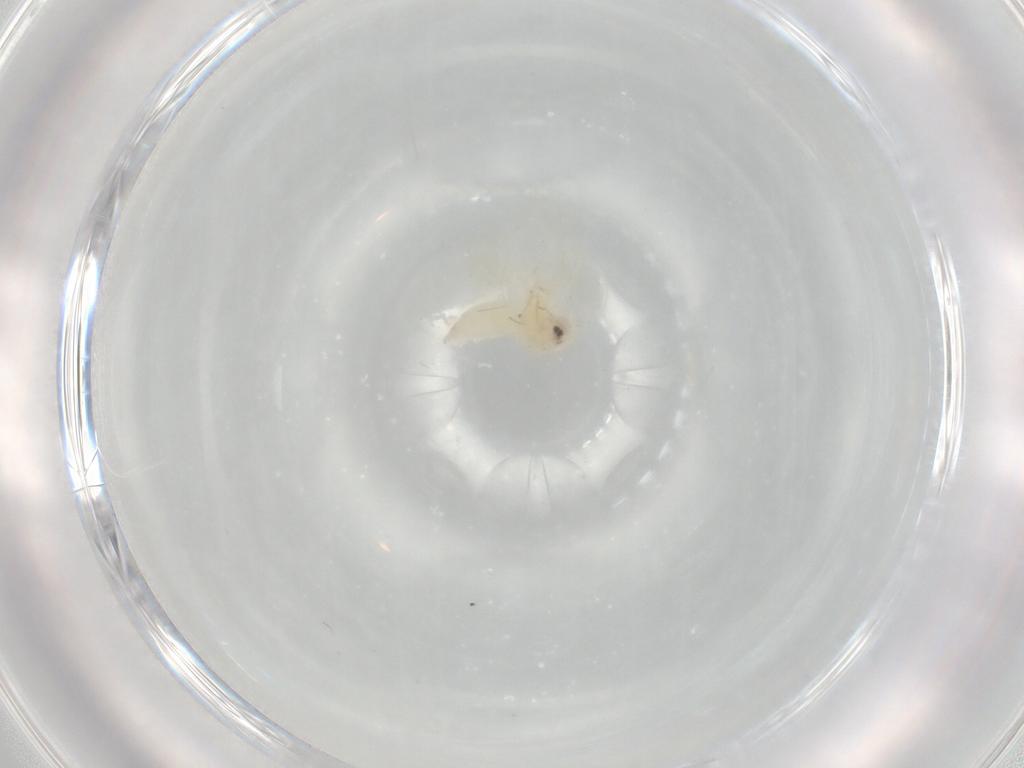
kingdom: Animalia
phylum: Arthropoda
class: Insecta
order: Hemiptera
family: Aleyrodidae
